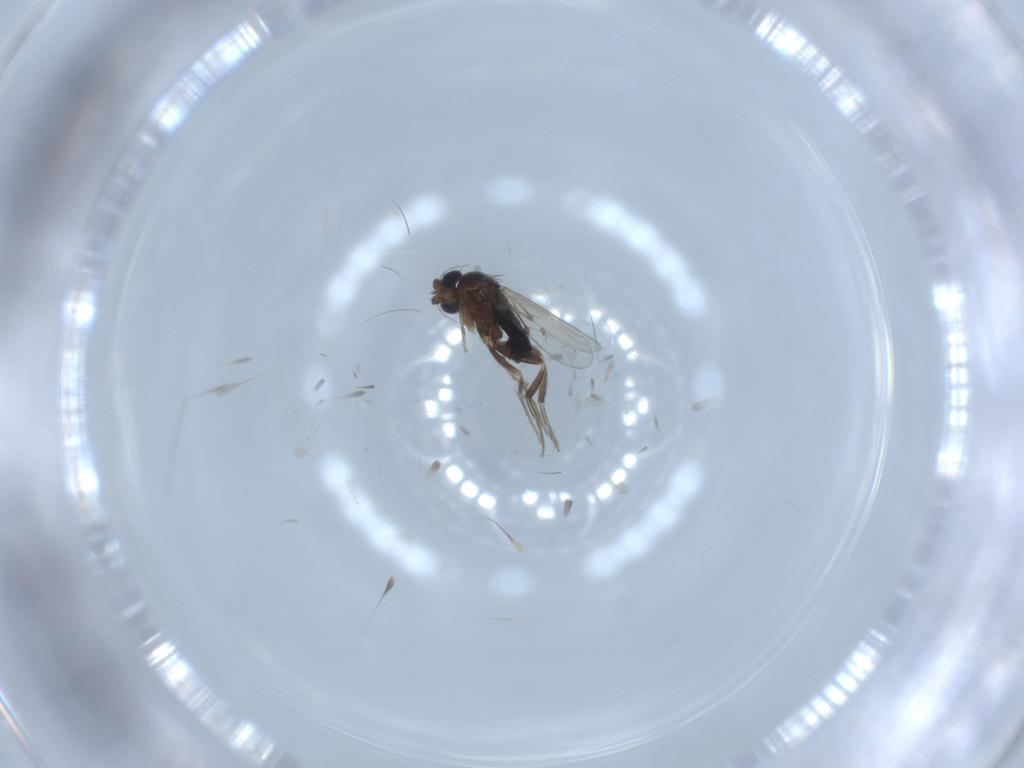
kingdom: Animalia
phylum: Arthropoda
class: Insecta
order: Diptera
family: Phoridae
